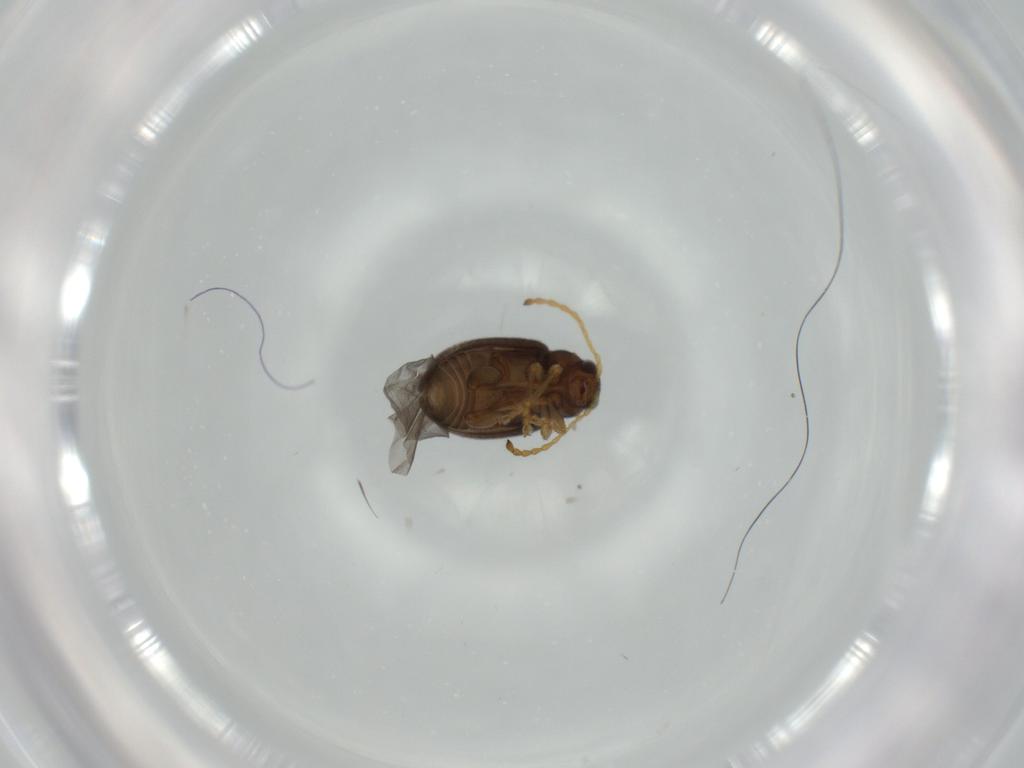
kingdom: Animalia
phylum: Arthropoda
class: Insecta
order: Coleoptera
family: Chrysomelidae
